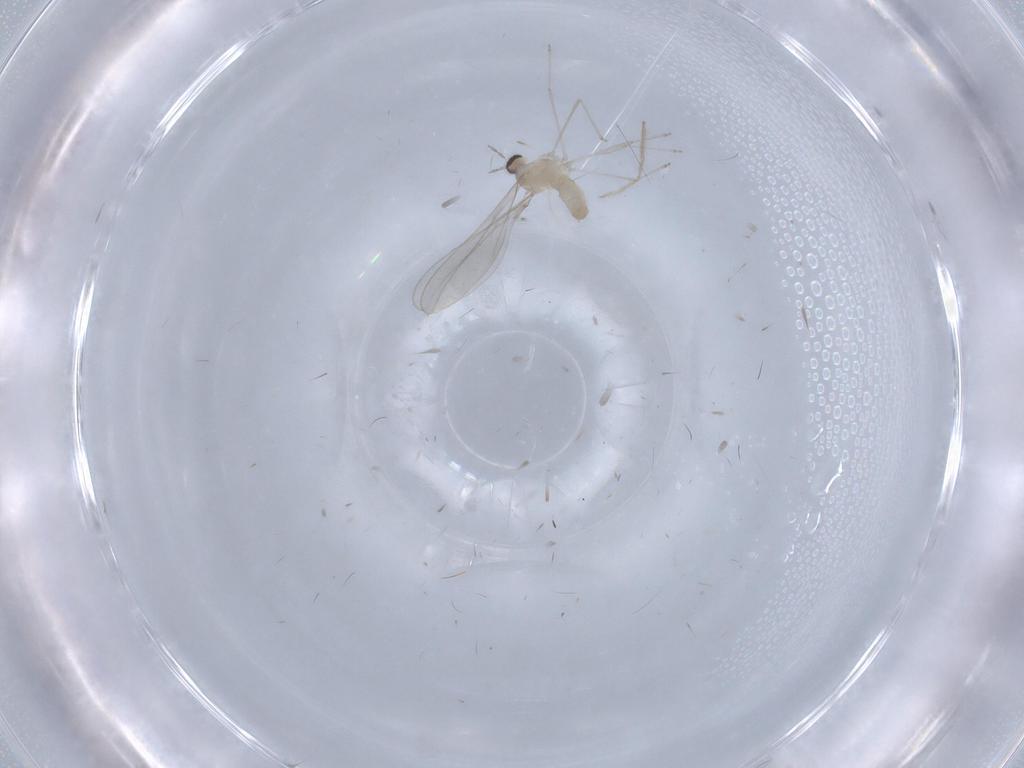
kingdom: Animalia
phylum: Arthropoda
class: Insecta
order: Diptera
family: Cecidomyiidae
